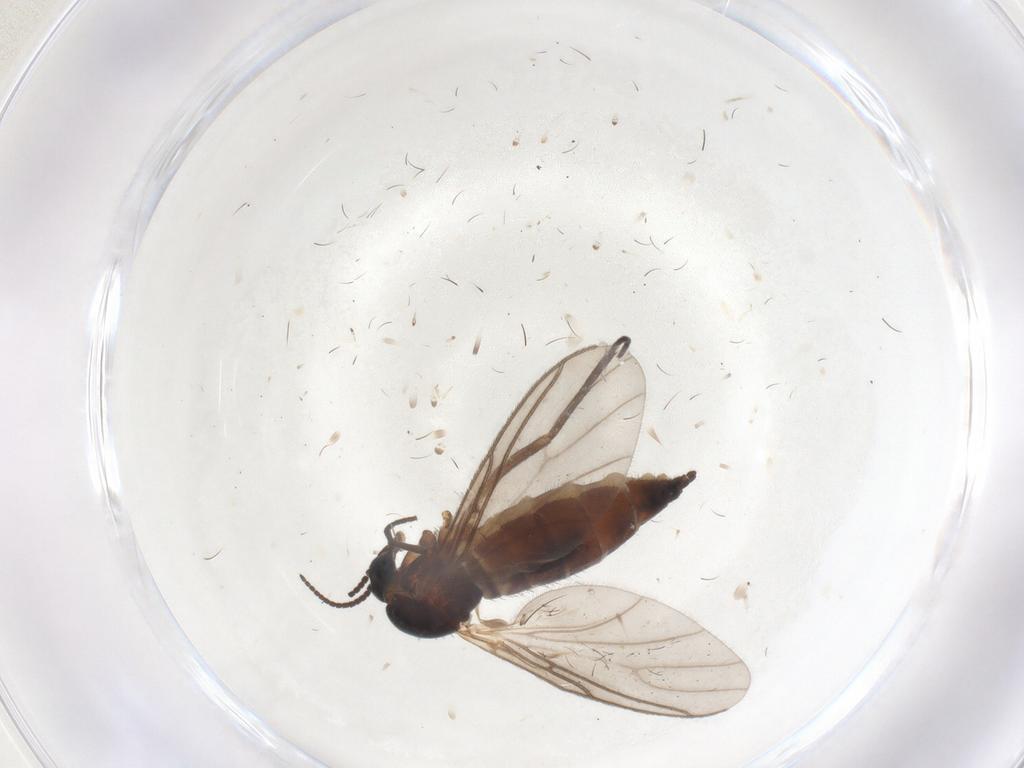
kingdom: Animalia
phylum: Arthropoda
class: Insecta
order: Diptera
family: Sciaridae
